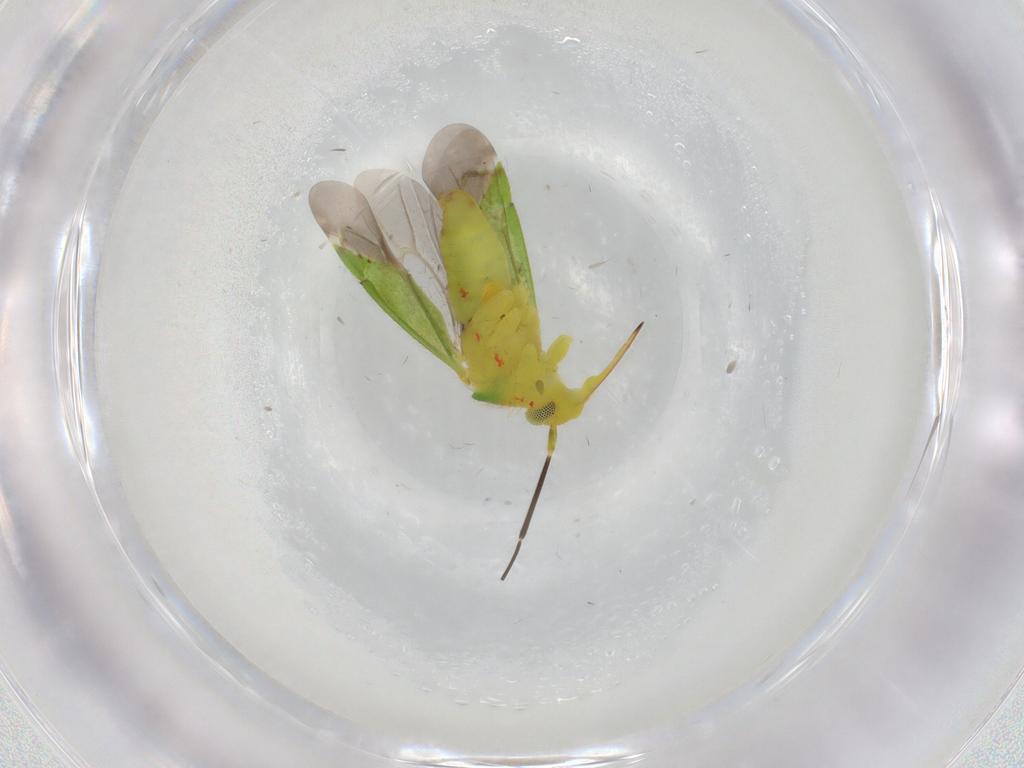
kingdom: Animalia
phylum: Arthropoda
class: Insecta
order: Hemiptera
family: Miridae
